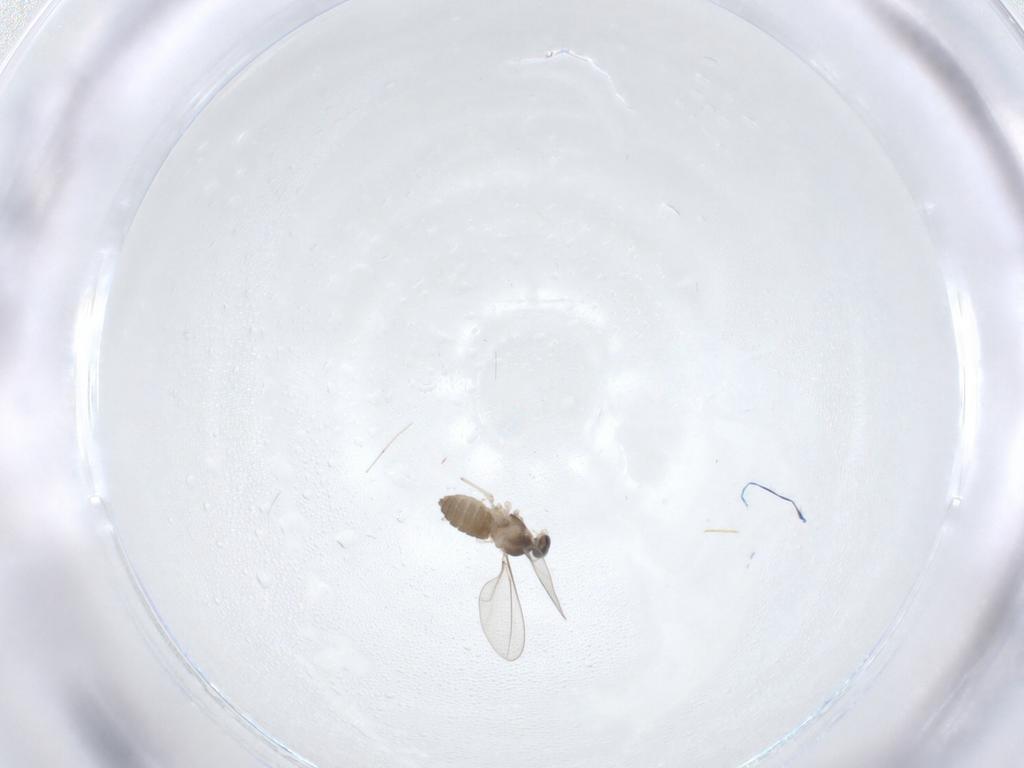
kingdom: Animalia
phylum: Arthropoda
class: Insecta
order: Diptera
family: Cecidomyiidae
